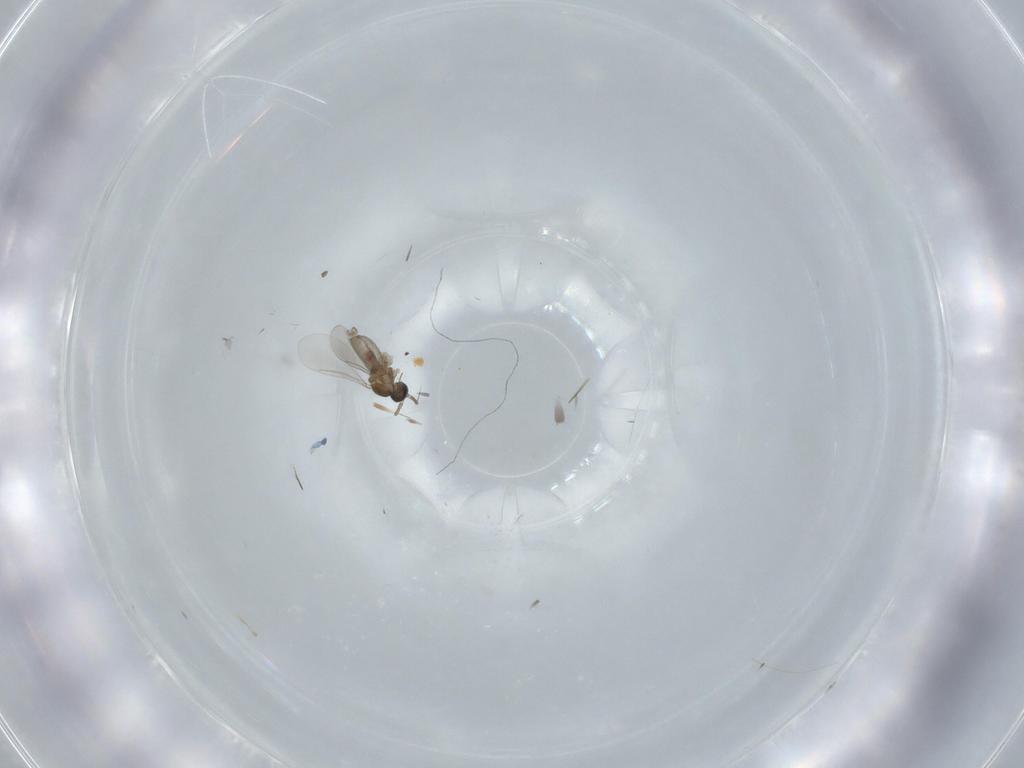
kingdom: Animalia
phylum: Arthropoda
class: Insecta
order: Diptera
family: Cecidomyiidae
